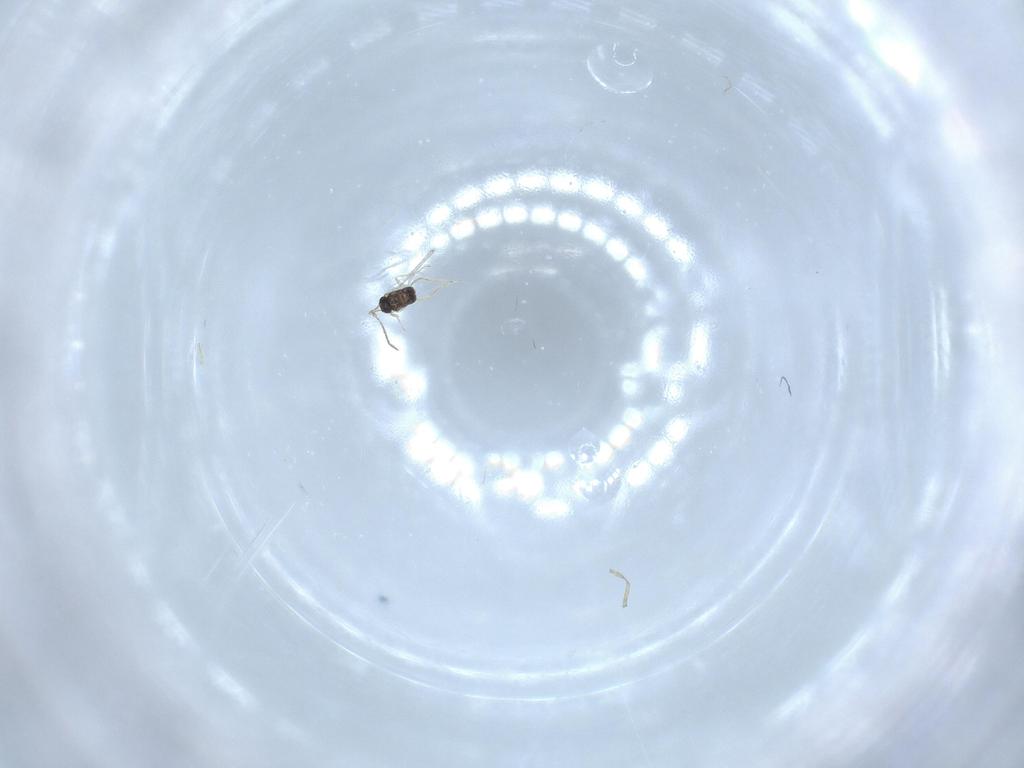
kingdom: Animalia
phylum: Arthropoda
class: Insecta
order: Hymenoptera
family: Mymaridae
